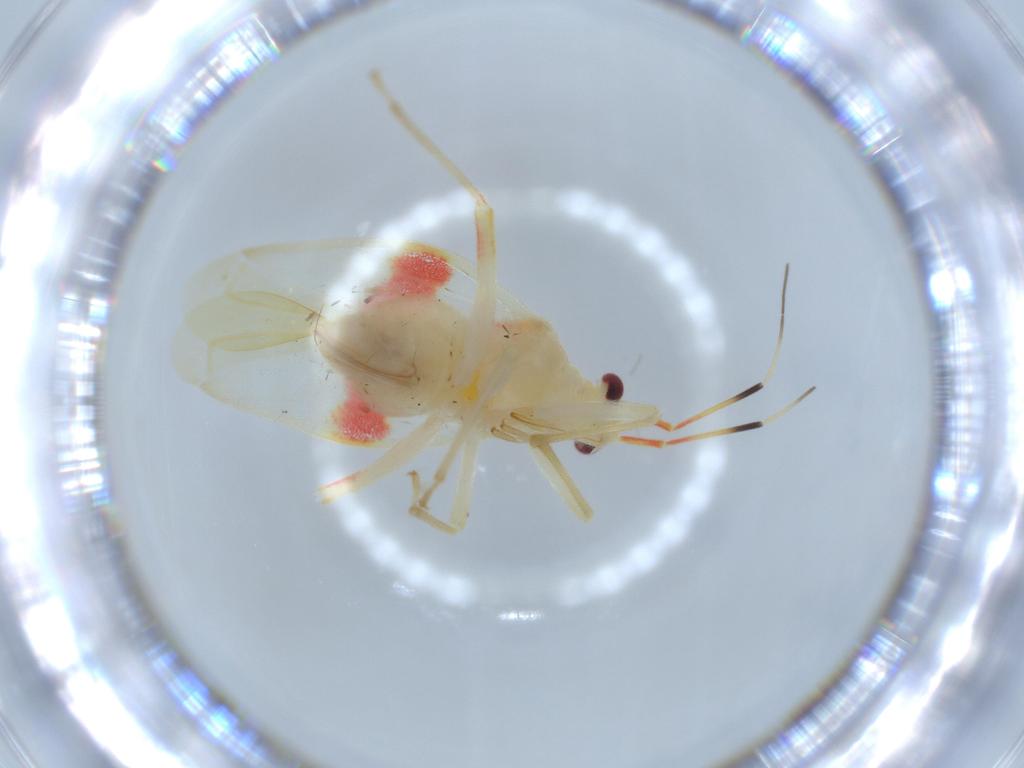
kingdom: Animalia
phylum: Arthropoda
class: Insecta
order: Hemiptera
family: Miridae
